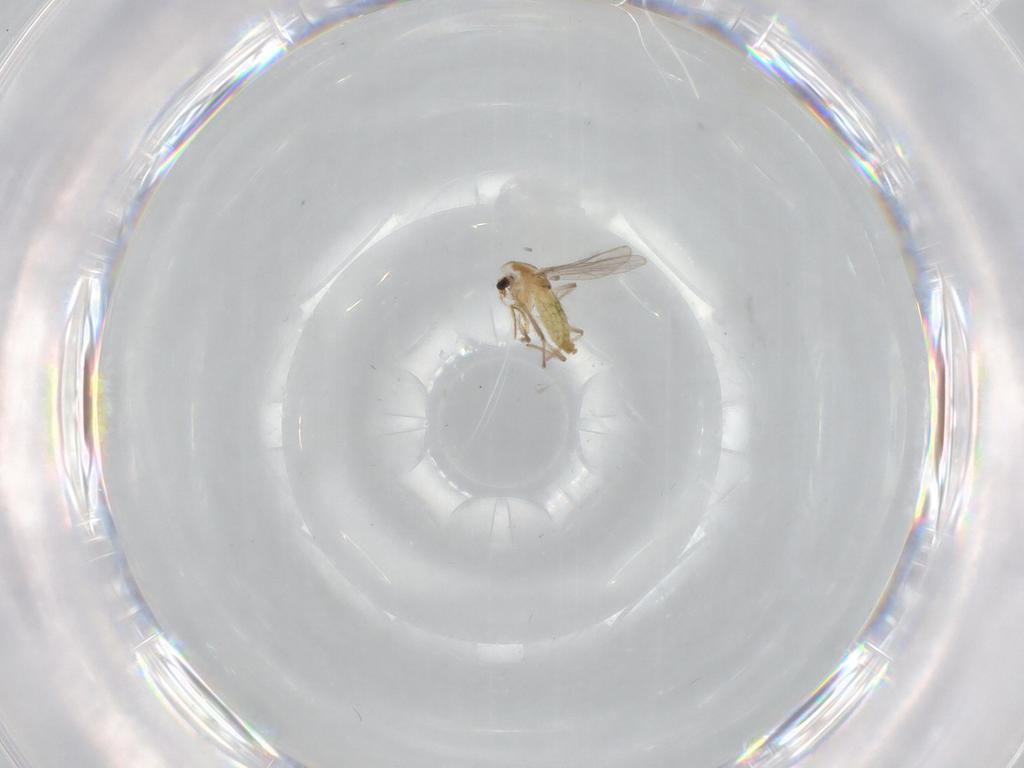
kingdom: Animalia
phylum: Arthropoda
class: Insecta
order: Diptera
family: Chironomidae
